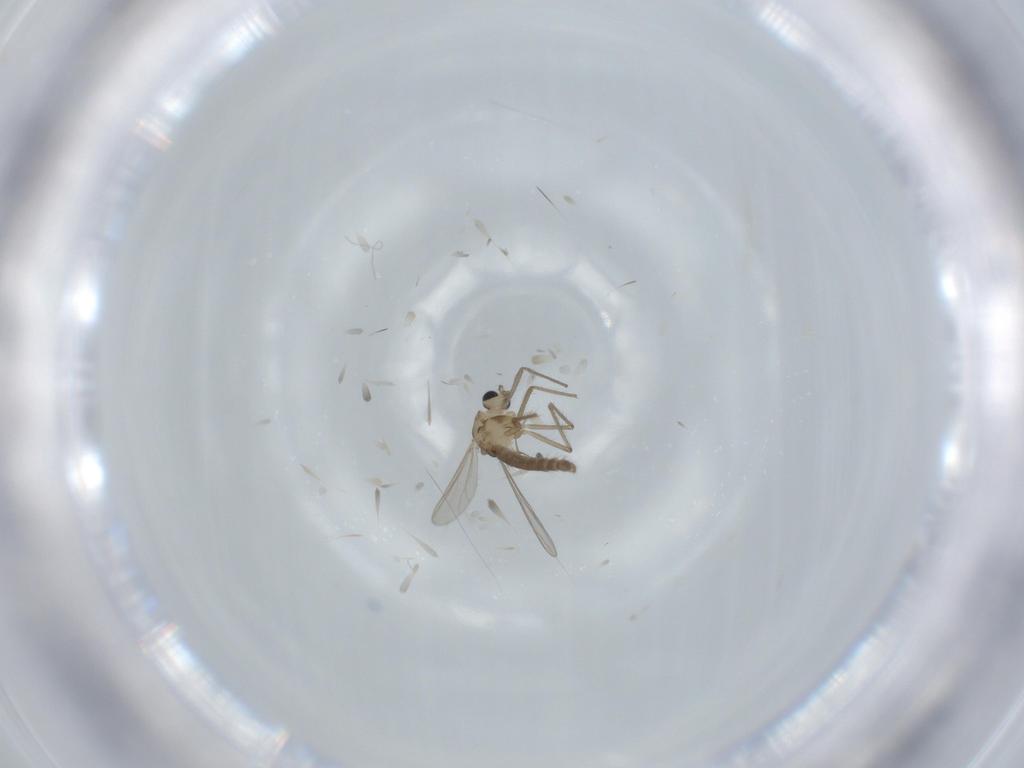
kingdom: Animalia
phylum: Arthropoda
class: Insecta
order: Diptera
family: Chironomidae
